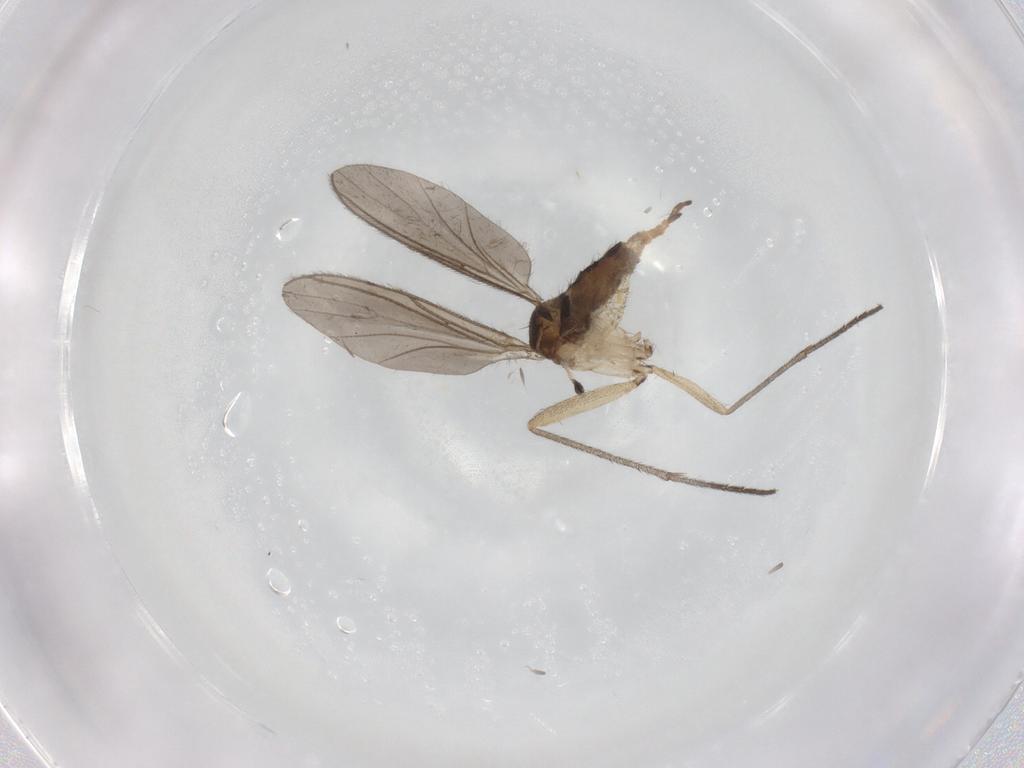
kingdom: Animalia
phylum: Arthropoda
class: Insecta
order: Diptera
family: Sciaridae
